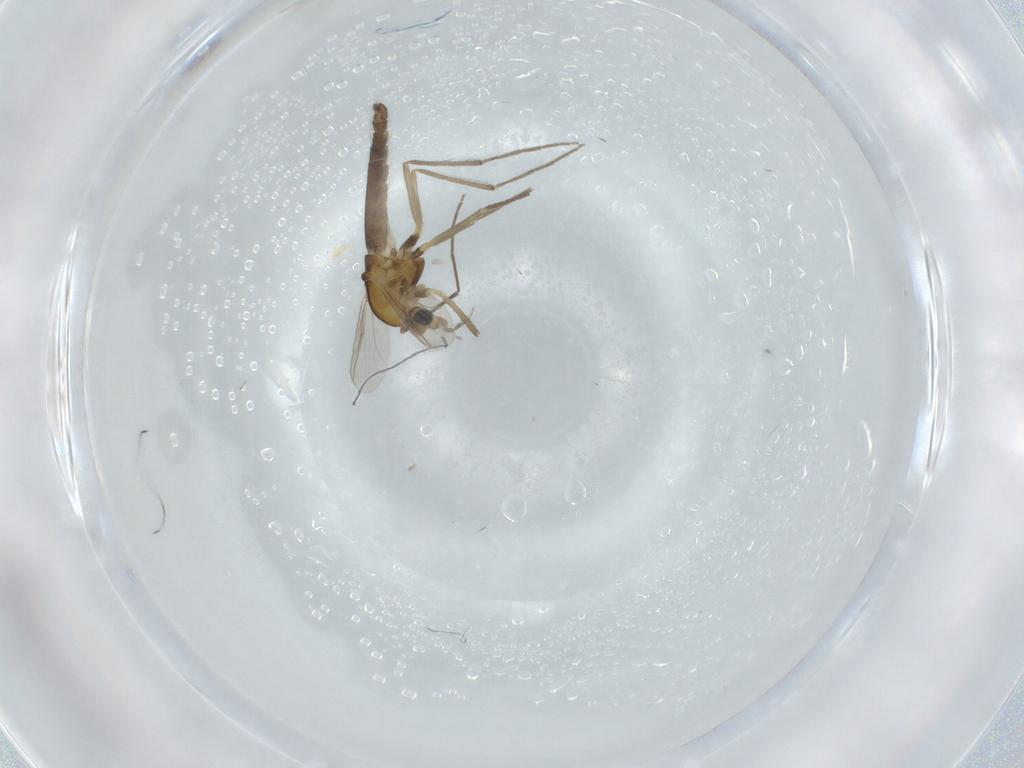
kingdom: Animalia
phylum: Arthropoda
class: Insecta
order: Diptera
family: Chironomidae
